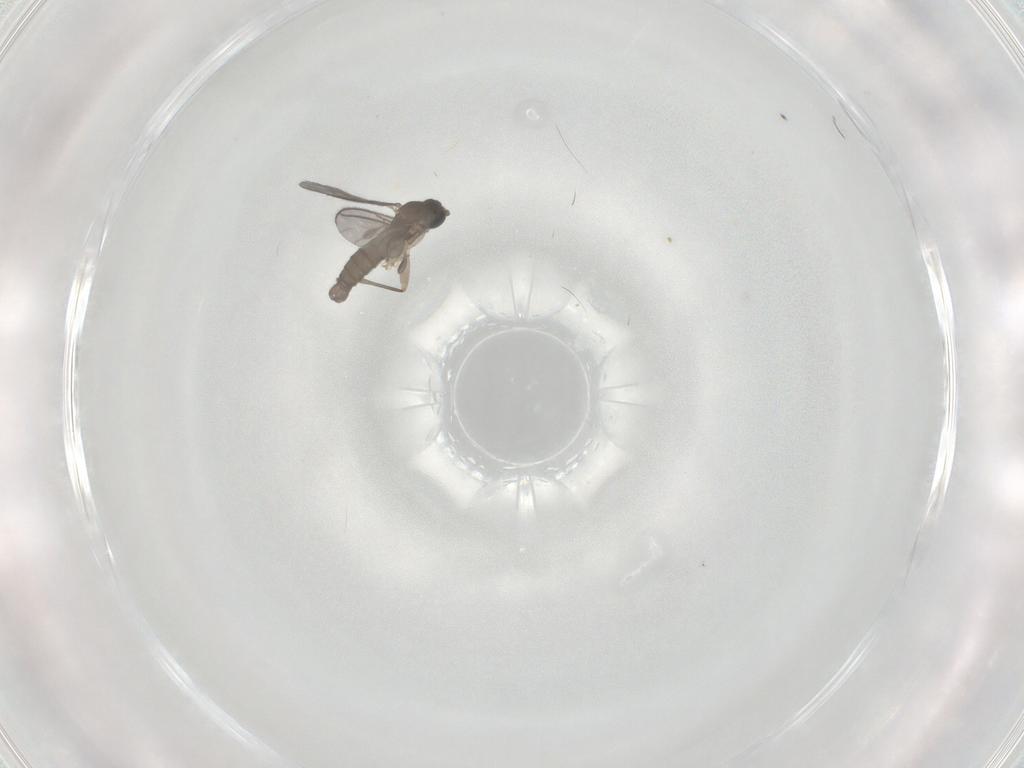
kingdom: Animalia
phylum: Arthropoda
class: Insecta
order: Diptera
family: Sciaridae
